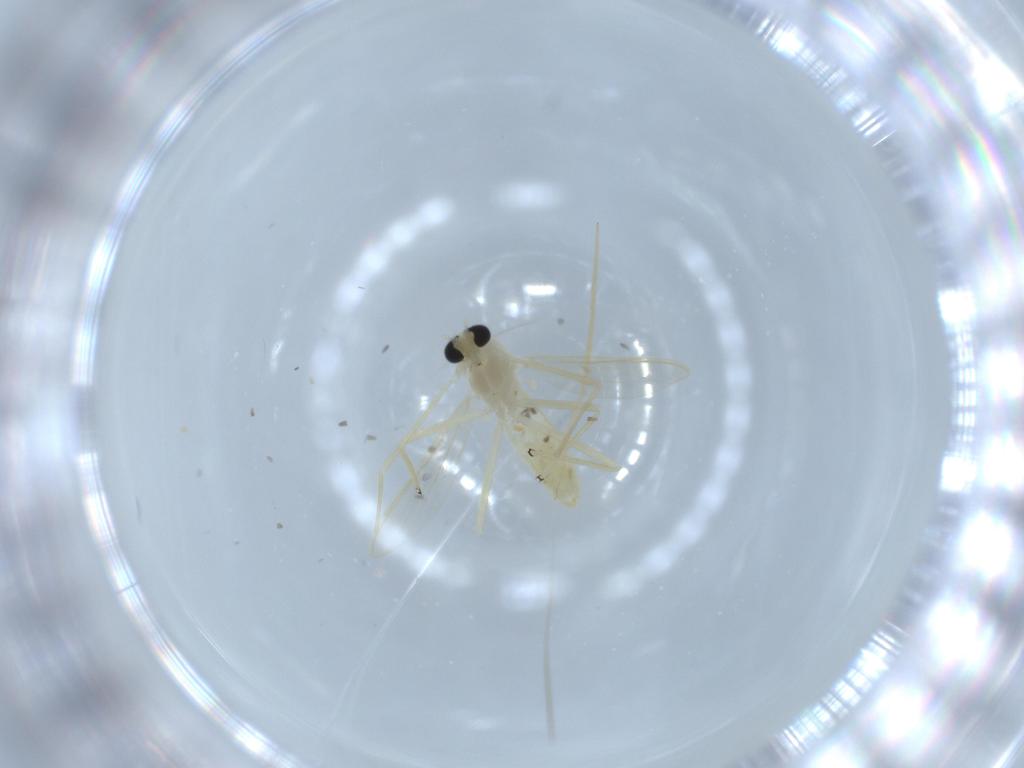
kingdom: Animalia
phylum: Arthropoda
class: Insecta
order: Diptera
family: Chironomidae
